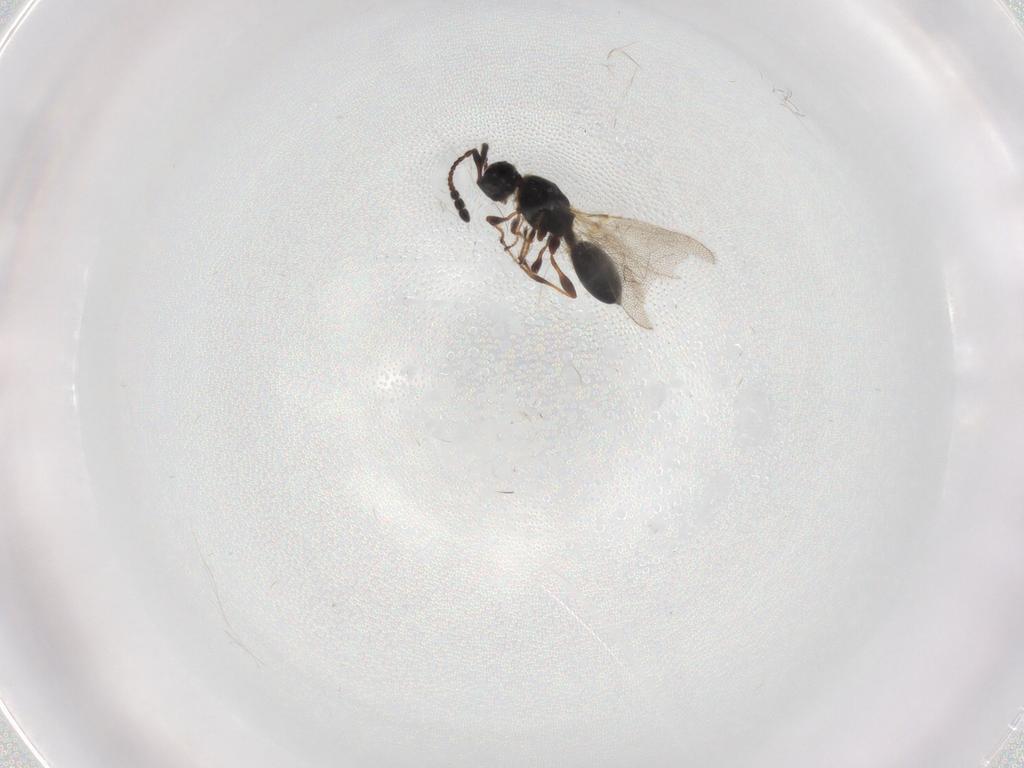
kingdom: Animalia
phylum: Arthropoda
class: Insecta
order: Hymenoptera
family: Diapriidae
